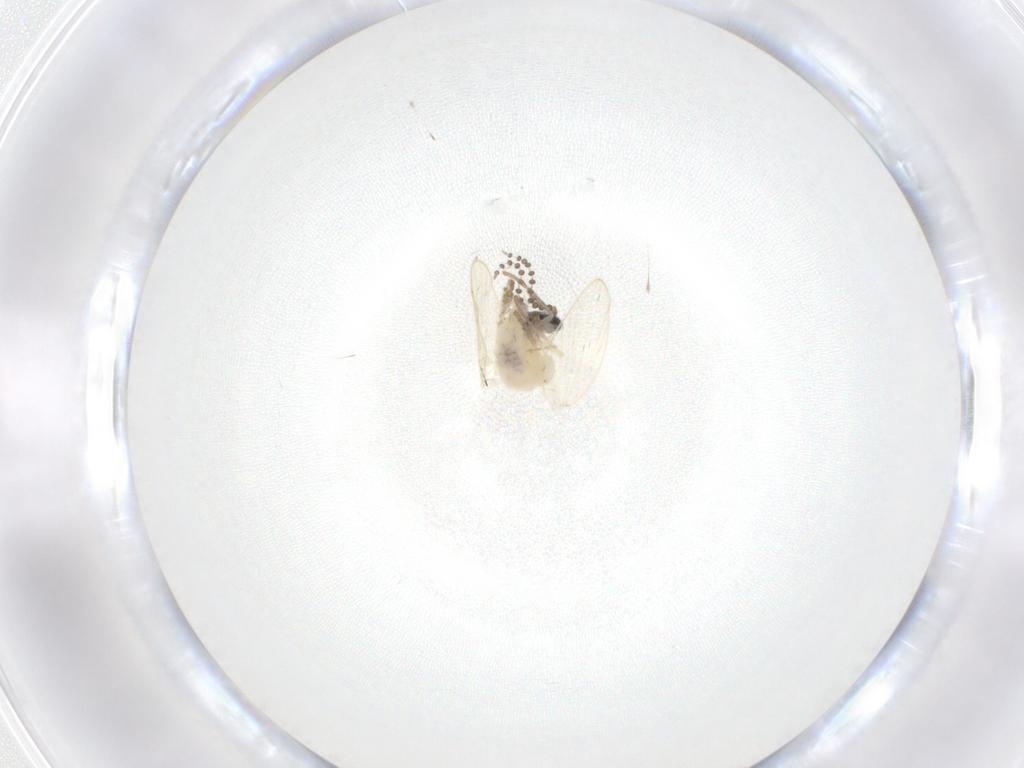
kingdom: Animalia
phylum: Arthropoda
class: Insecta
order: Diptera
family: Psychodidae
